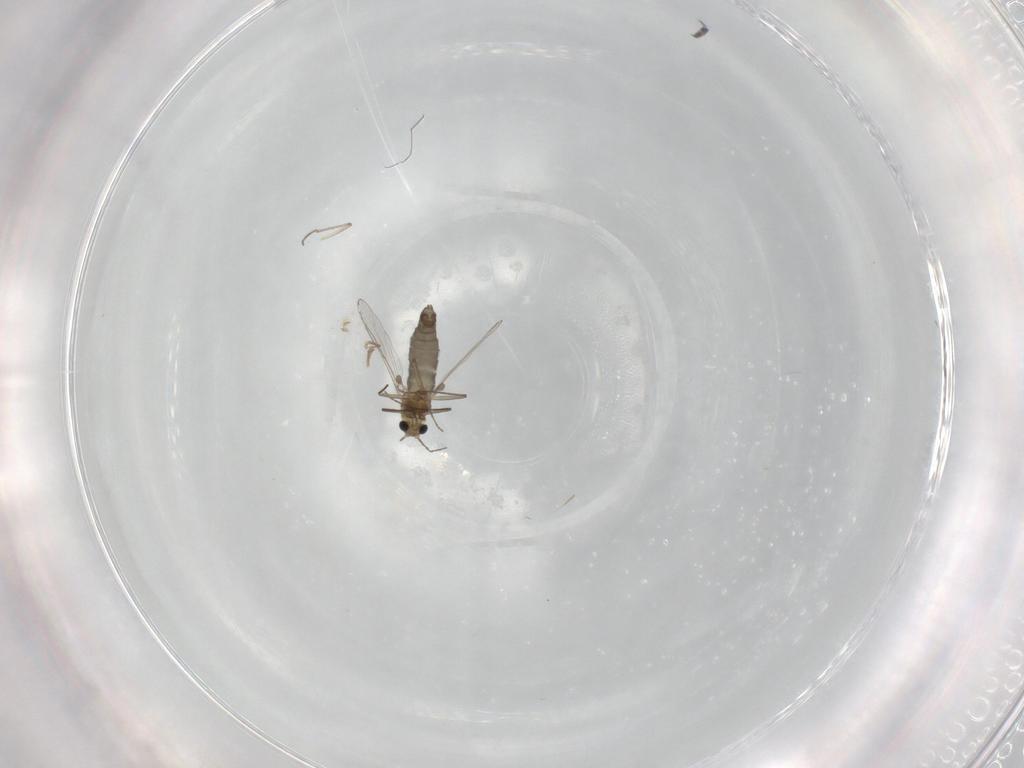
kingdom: Animalia
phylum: Arthropoda
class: Insecta
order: Diptera
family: Chironomidae
